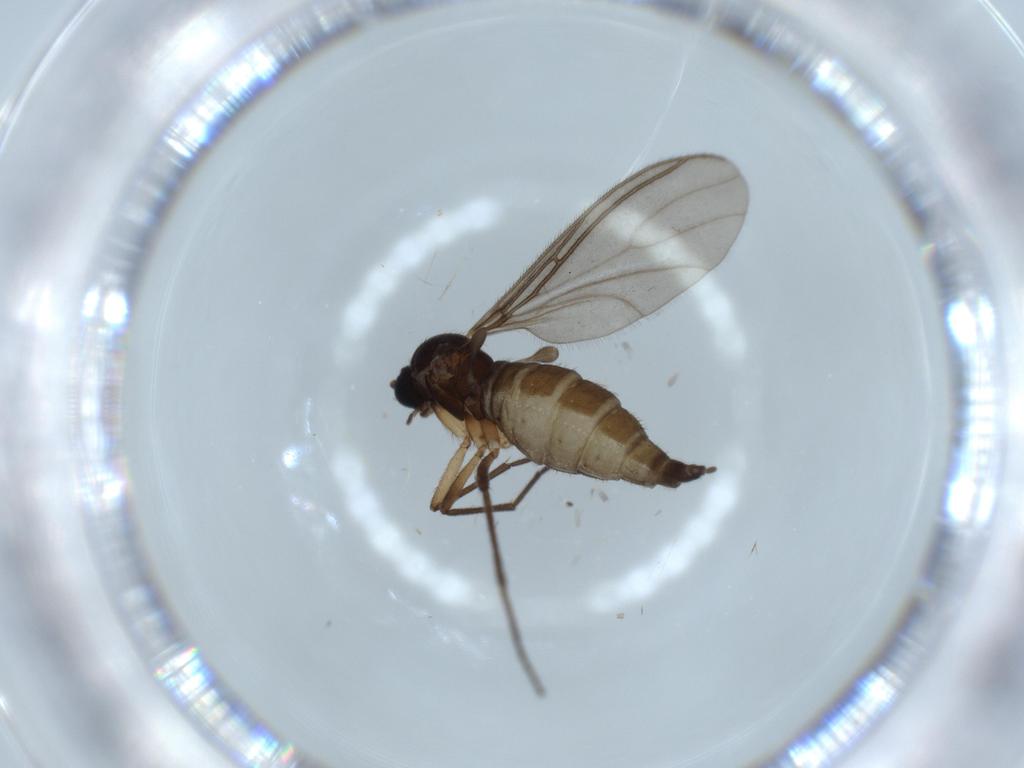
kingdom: Animalia
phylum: Arthropoda
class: Insecta
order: Diptera
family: Sciaridae
